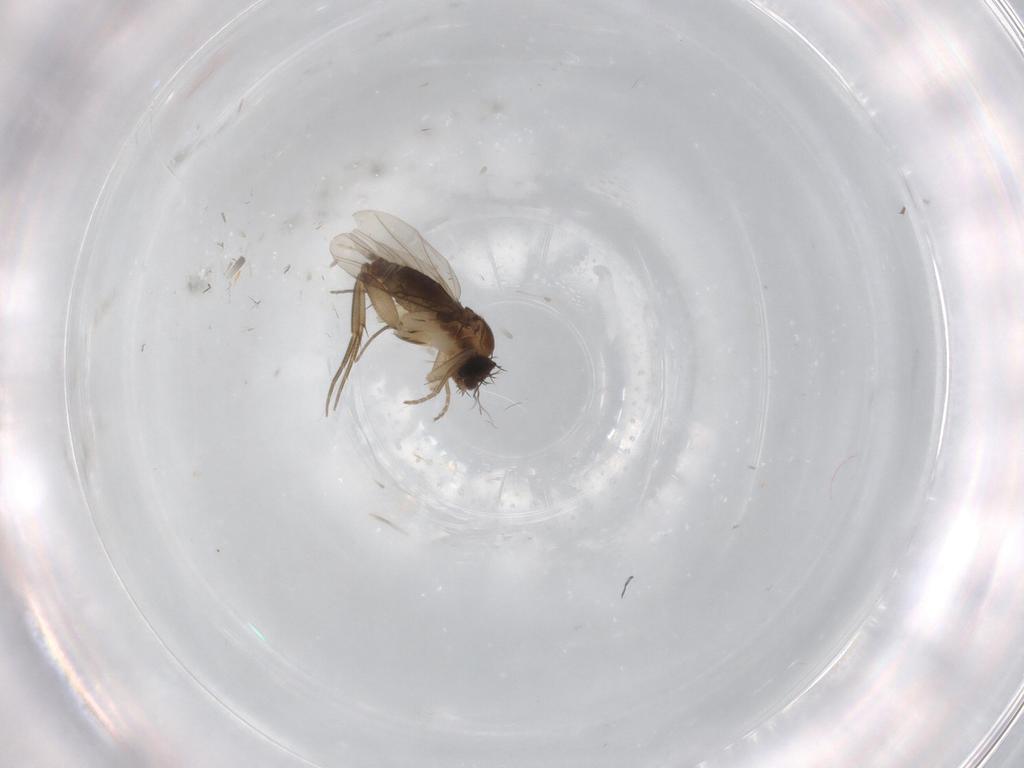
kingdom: Animalia
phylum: Arthropoda
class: Insecta
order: Diptera
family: Phoridae
